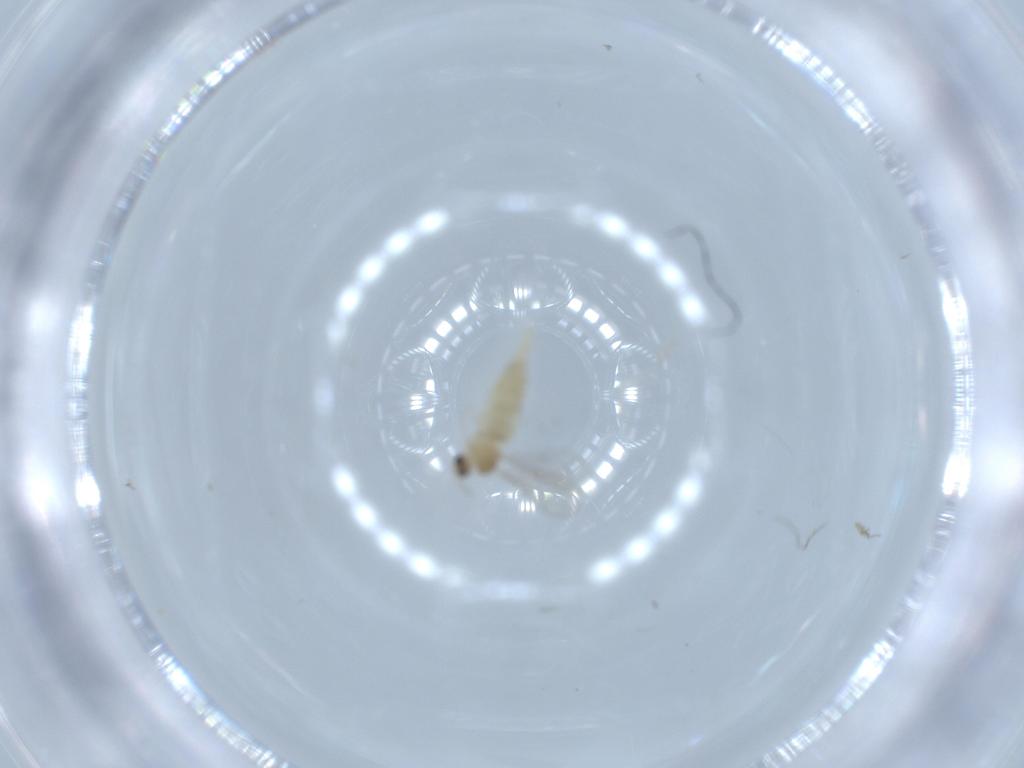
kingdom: Animalia
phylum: Arthropoda
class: Insecta
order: Diptera
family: Cecidomyiidae
